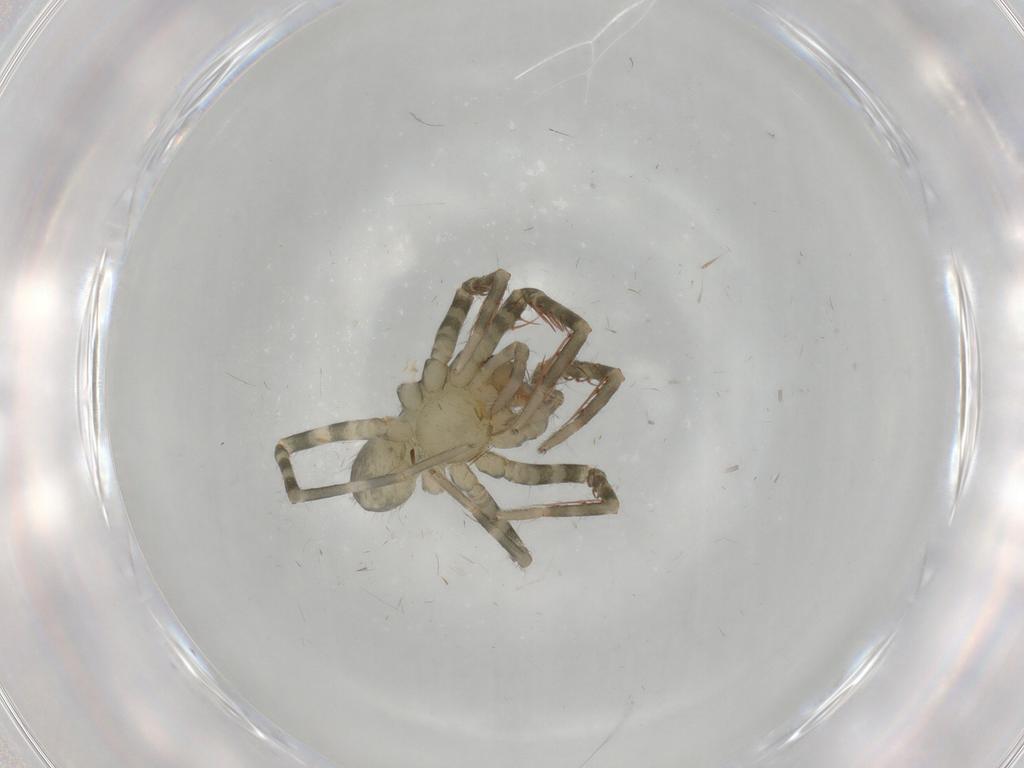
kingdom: Animalia
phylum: Arthropoda
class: Arachnida
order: Araneae
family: Ctenidae
